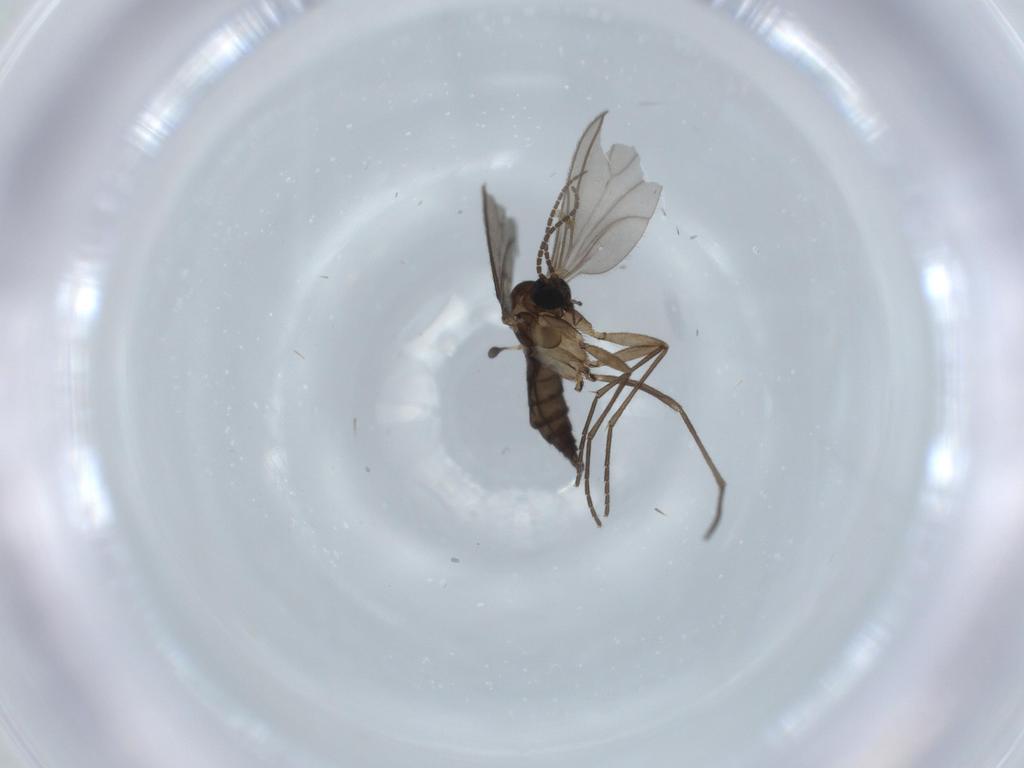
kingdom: Animalia
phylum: Arthropoda
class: Insecta
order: Diptera
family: Sciaridae
